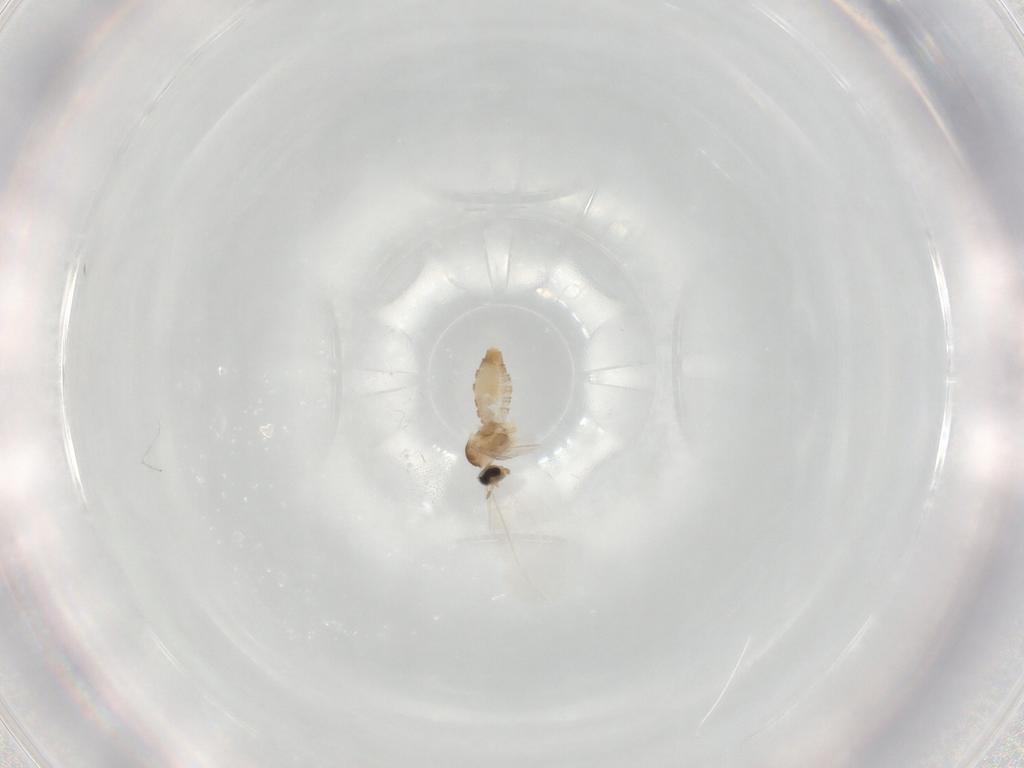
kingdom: Animalia
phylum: Arthropoda
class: Insecta
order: Diptera
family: Cecidomyiidae
